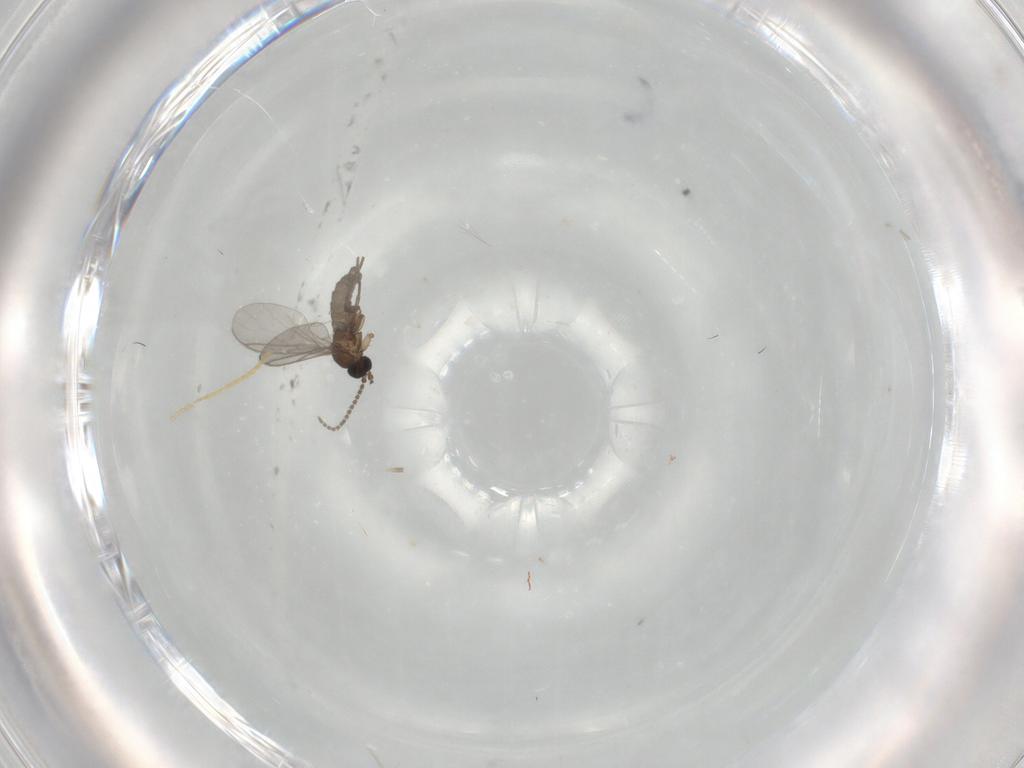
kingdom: Animalia
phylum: Arthropoda
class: Insecta
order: Diptera
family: Sciaridae
